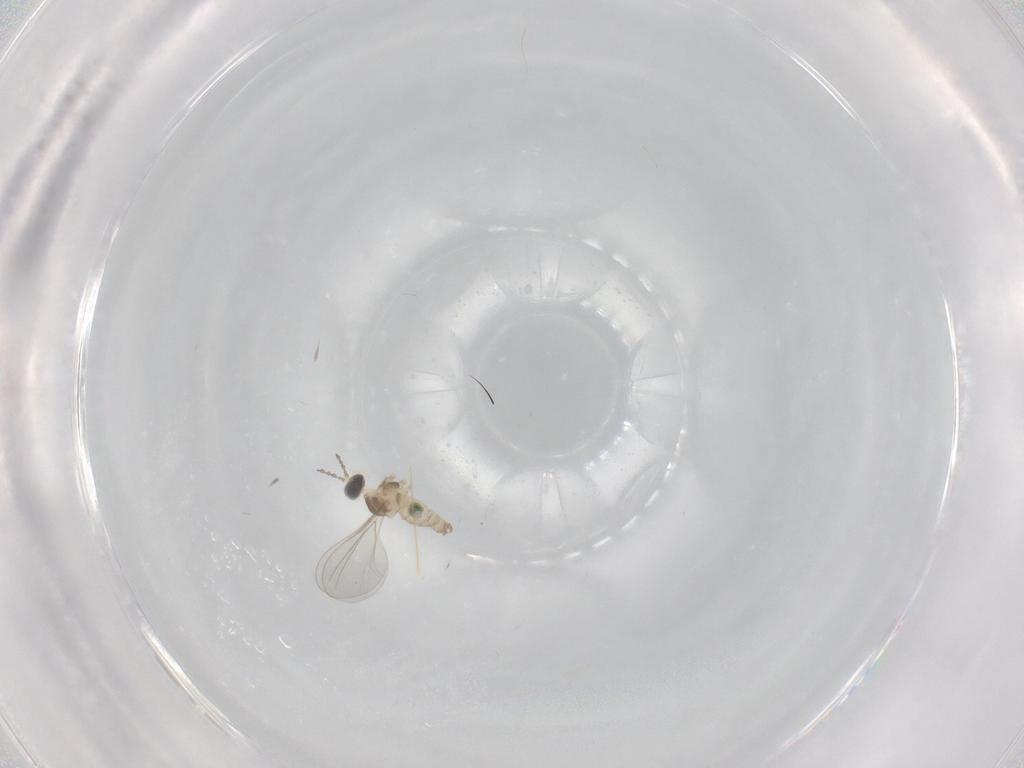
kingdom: Animalia
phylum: Arthropoda
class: Insecta
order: Diptera
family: Cecidomyiidae
